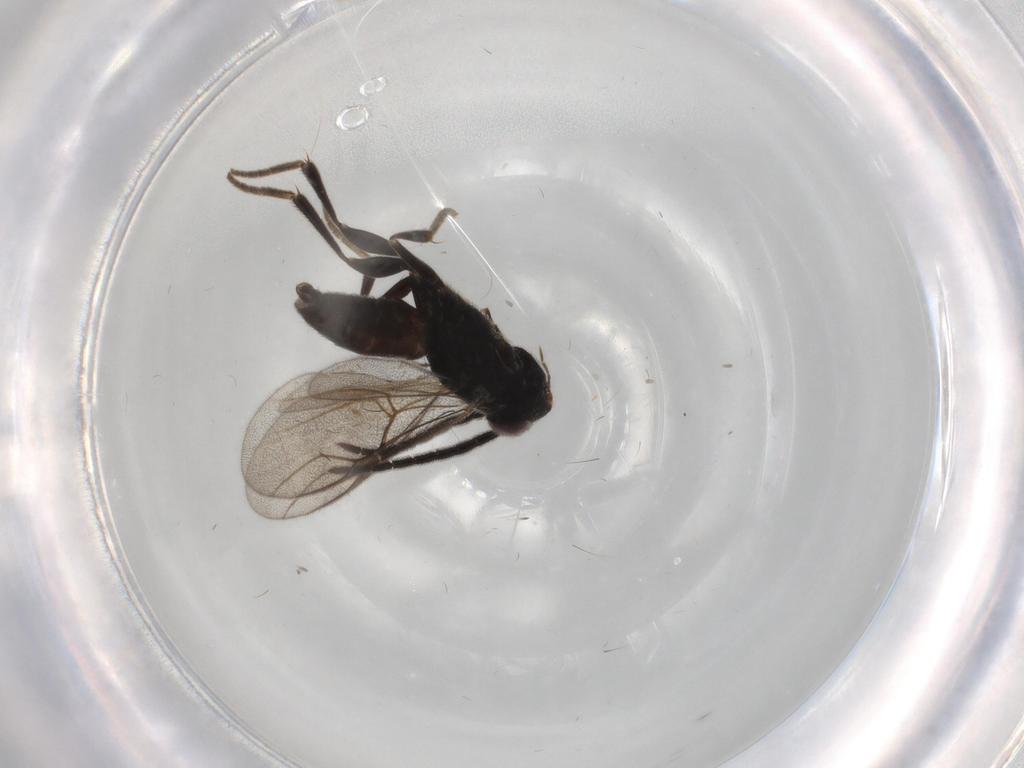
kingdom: Animalia
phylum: Arthropoda
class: Insecta
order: Hymenoptera
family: Dryinidae
